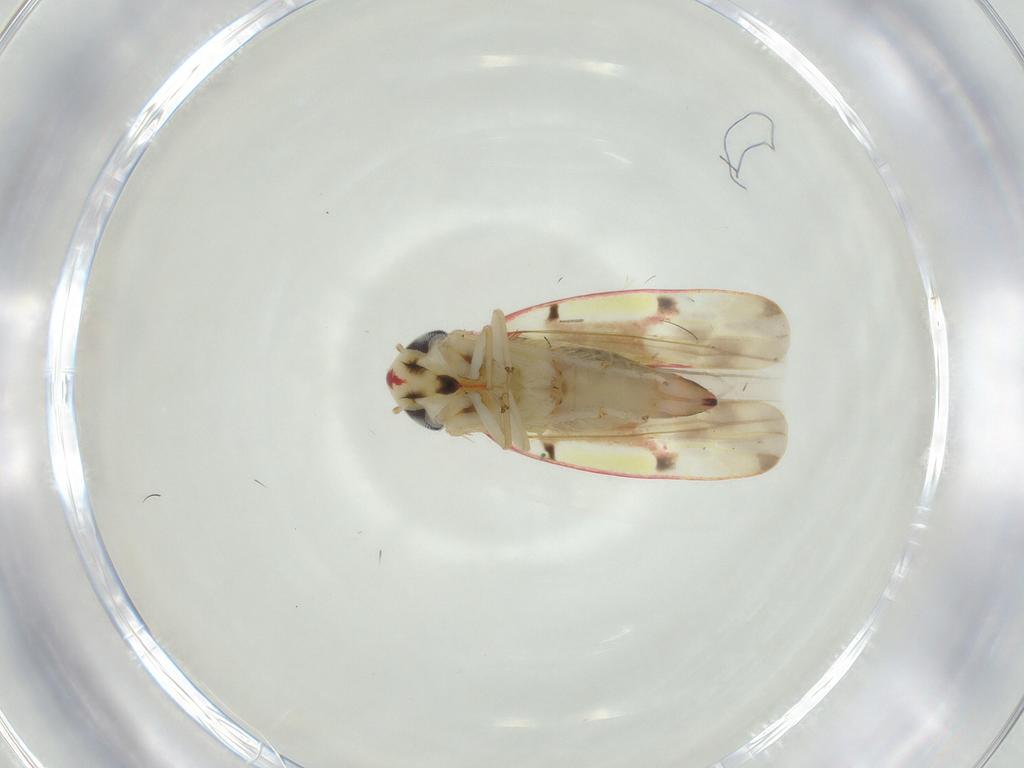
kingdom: Animalia
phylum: Arthropoda
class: Insecta
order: Hemiptera
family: Cicadellidae
